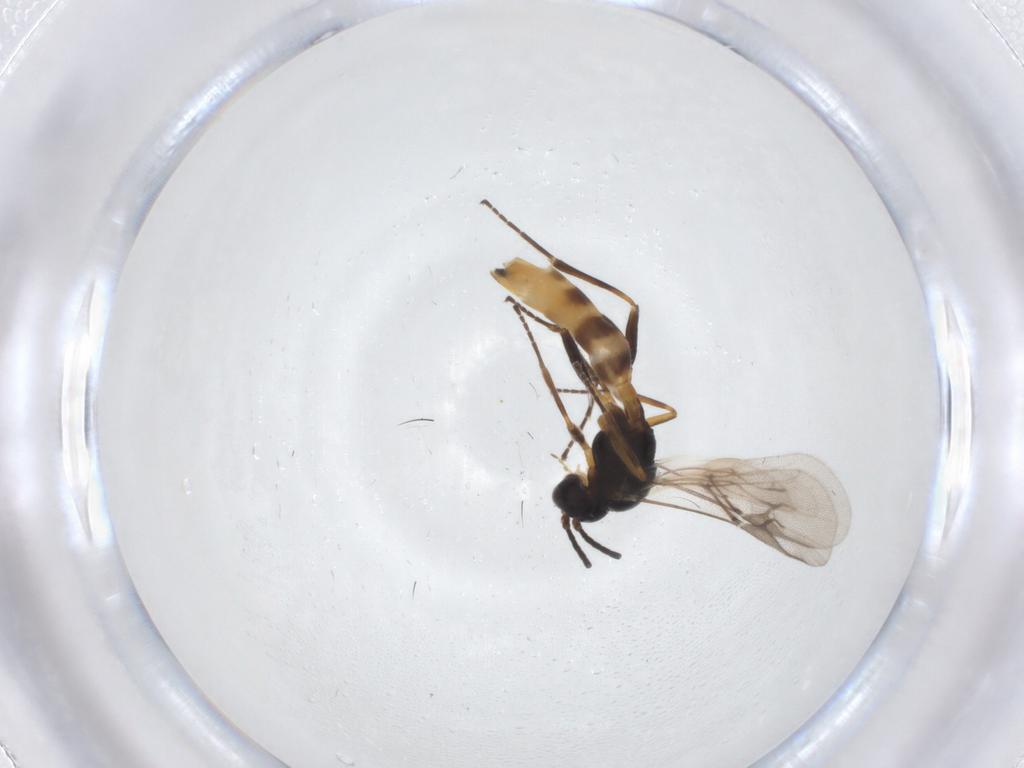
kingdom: Animalia
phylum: Arthropoda
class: Insecta
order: Hymenoptera
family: Braconidae
